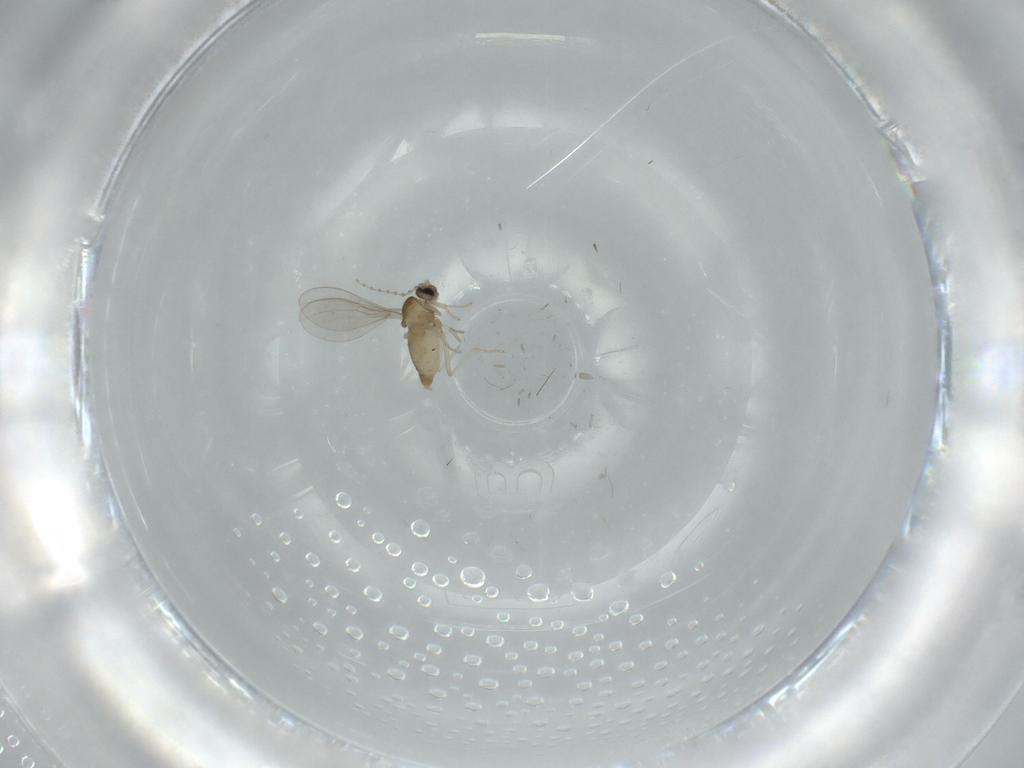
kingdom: Animalia
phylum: Arthropoda
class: Insecta
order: Diptera
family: Cecidomyiidae
